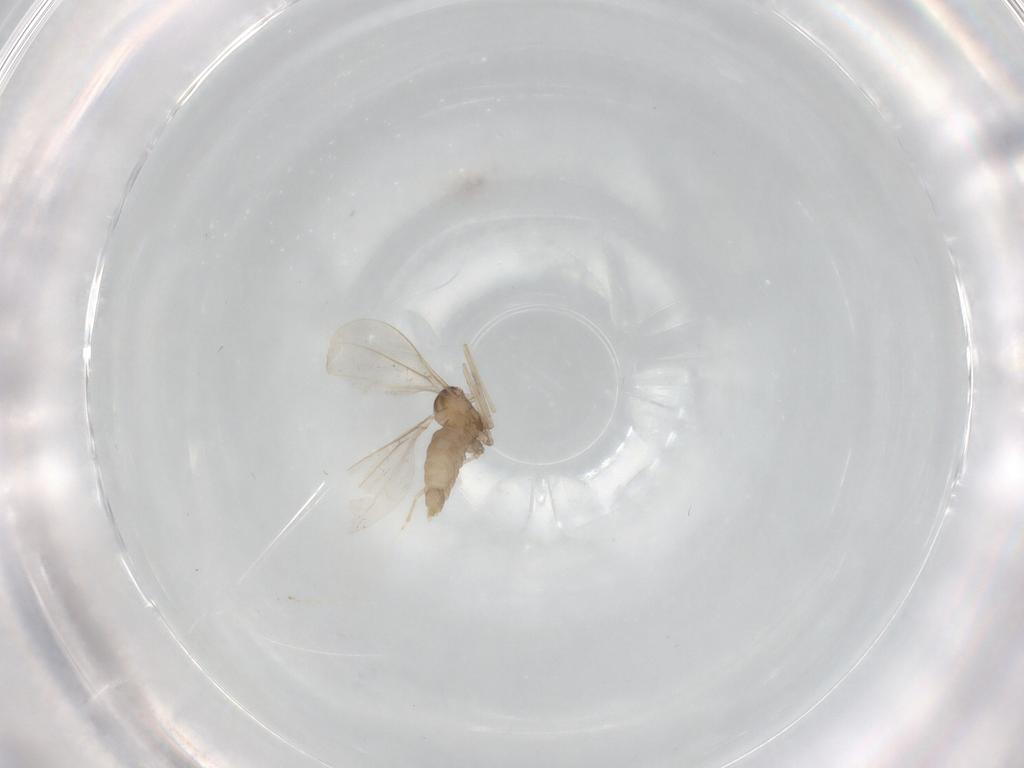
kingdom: Animalia
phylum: Arthropoda
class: Insecta
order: Diptera
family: Cecidomyiidae
